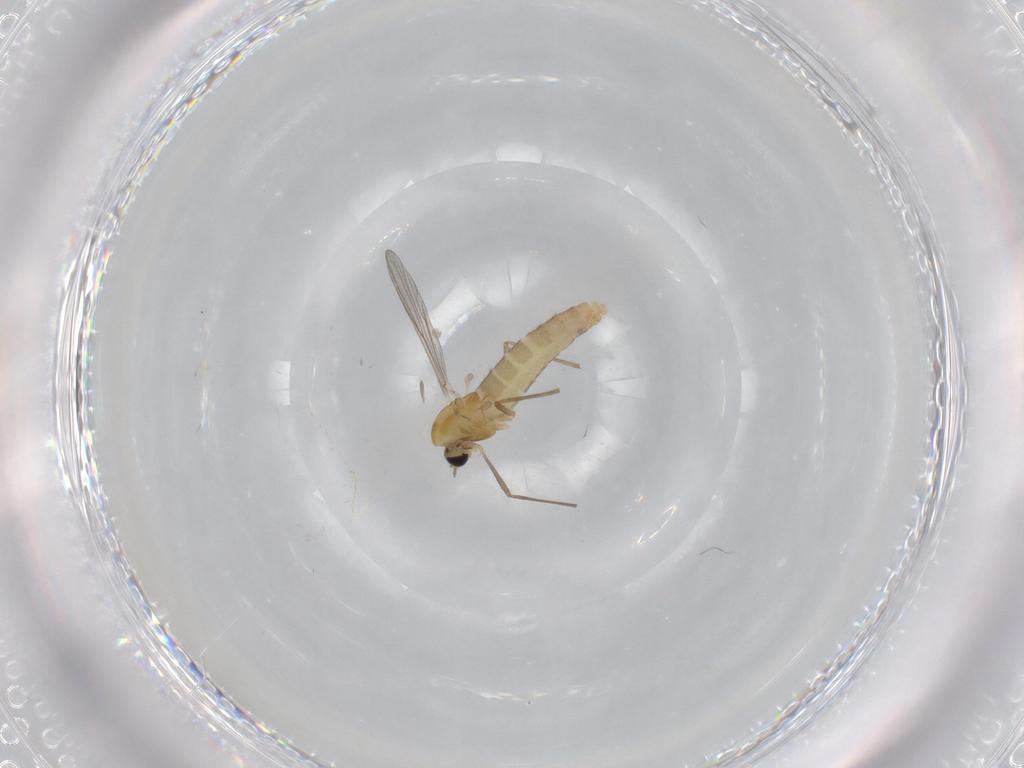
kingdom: Animalia
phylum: Arthropoda
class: Insecta
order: Diptera
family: Chironomidae
